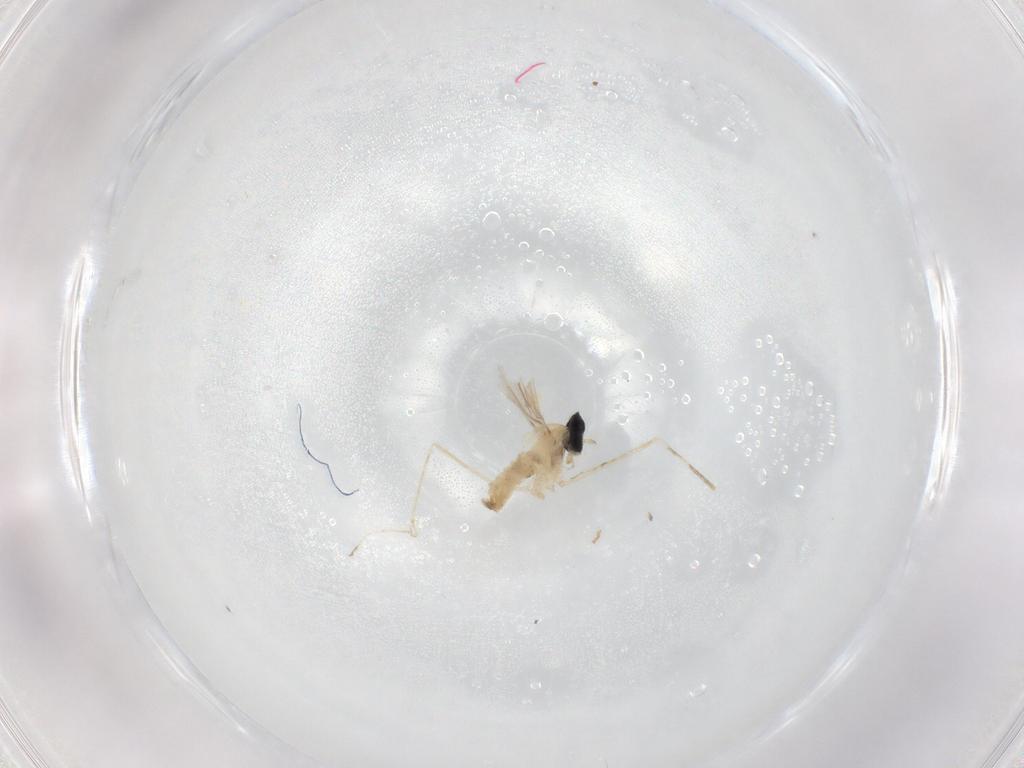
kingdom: Animalia
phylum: Arthropoda
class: Insecta
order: Diptera
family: Cecidomyiidae
